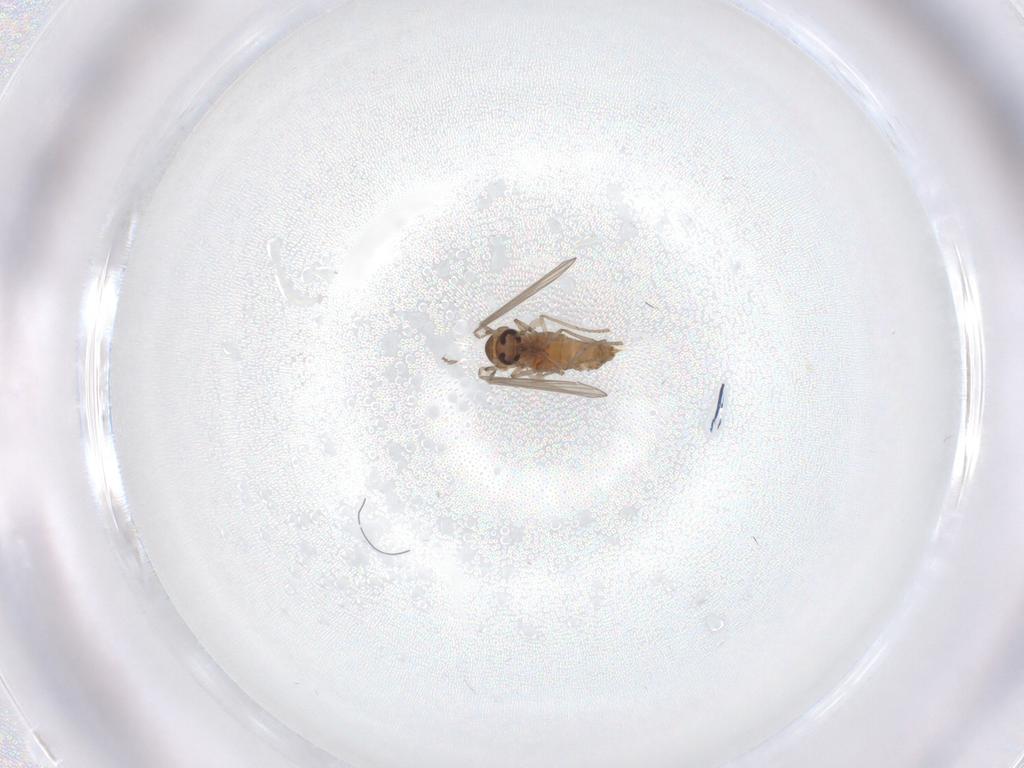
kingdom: Animalia
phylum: Arthropoda
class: Insecta
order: Diptera
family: Psychodidae
